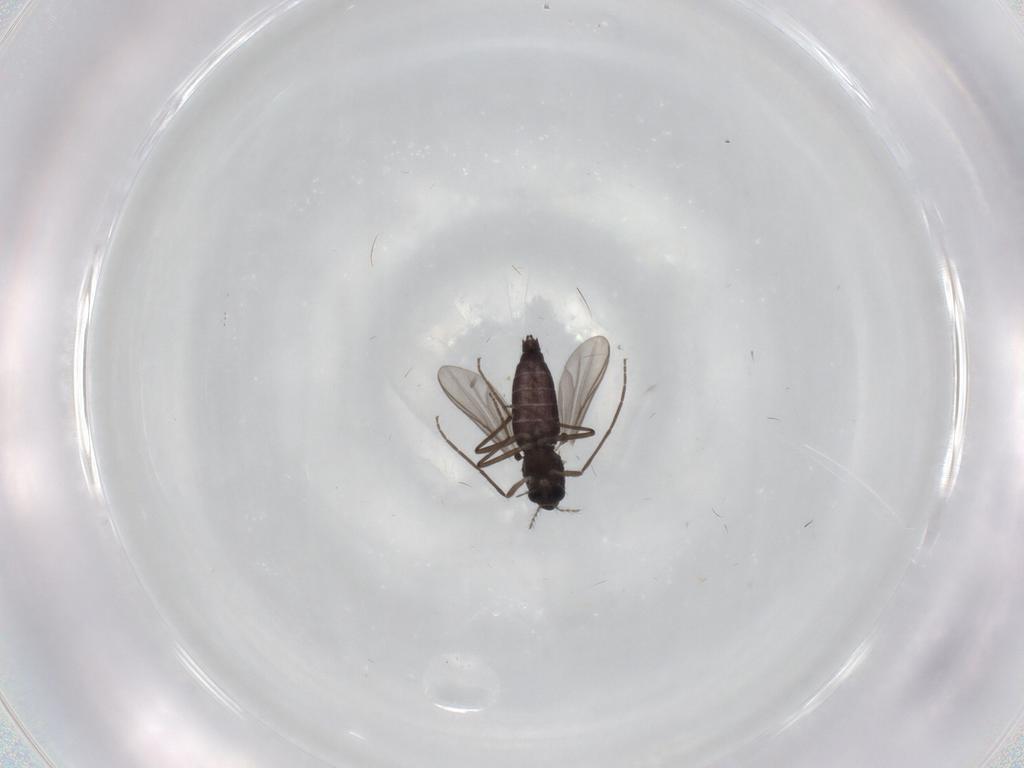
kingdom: Animalia
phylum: Arthropoda
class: Insecta
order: Diptera
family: Chironomidae
